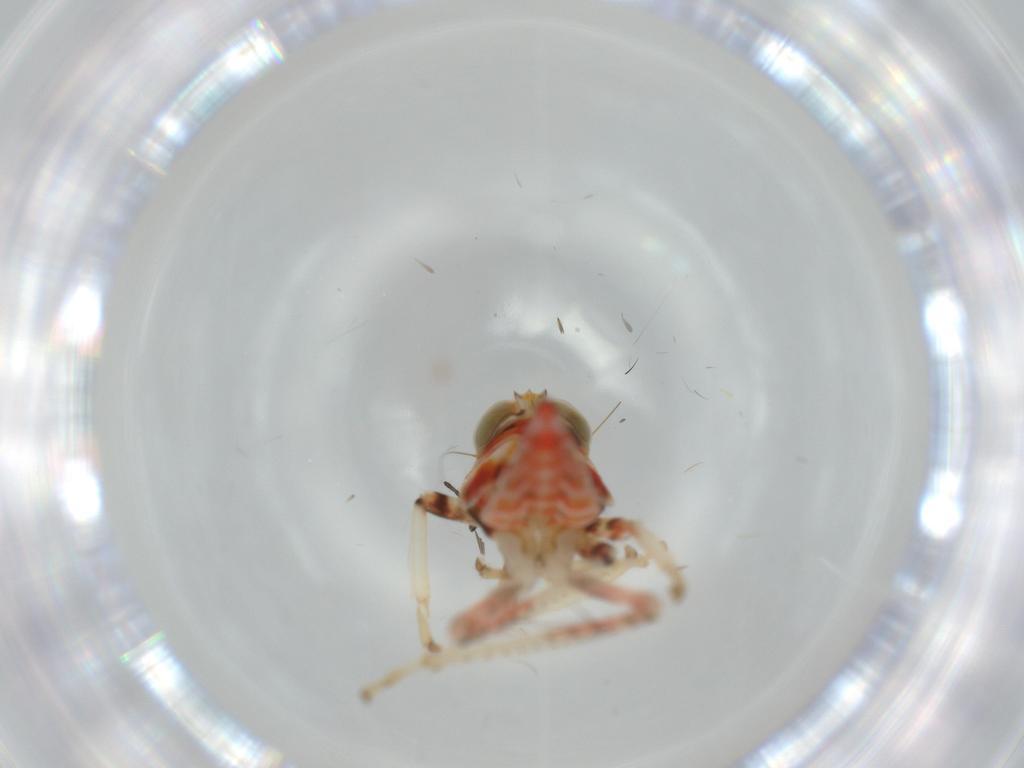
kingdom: Animalia
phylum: Arthropoda
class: Insecta
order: Hemiptera
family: Cicadellidae
